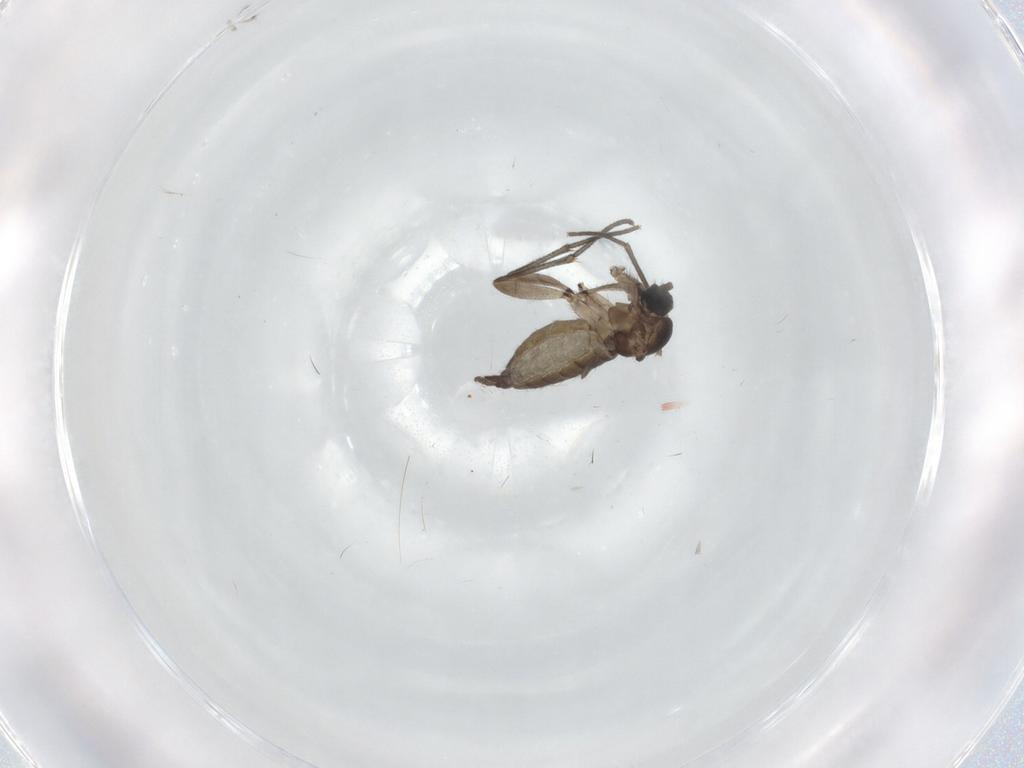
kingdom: Animalia
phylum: Arthropoda
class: Insecta
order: Diptera
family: Sciaridae
